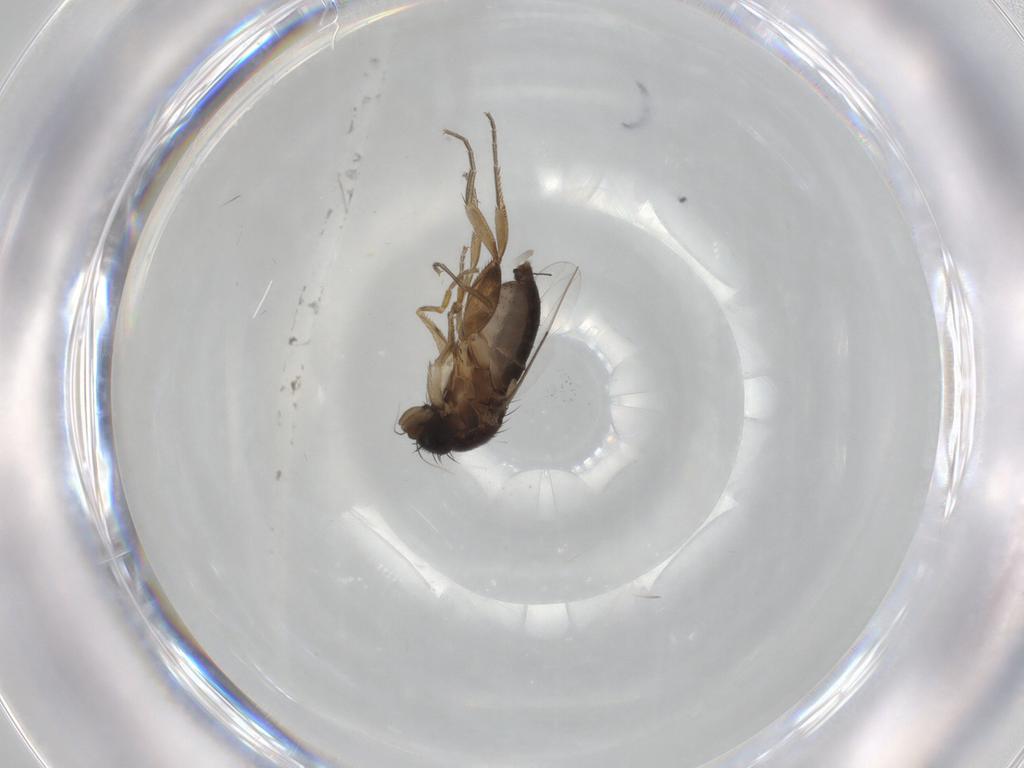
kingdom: Animalia
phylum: Arthropoda
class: Insecta
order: Diptera
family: Phoridae
